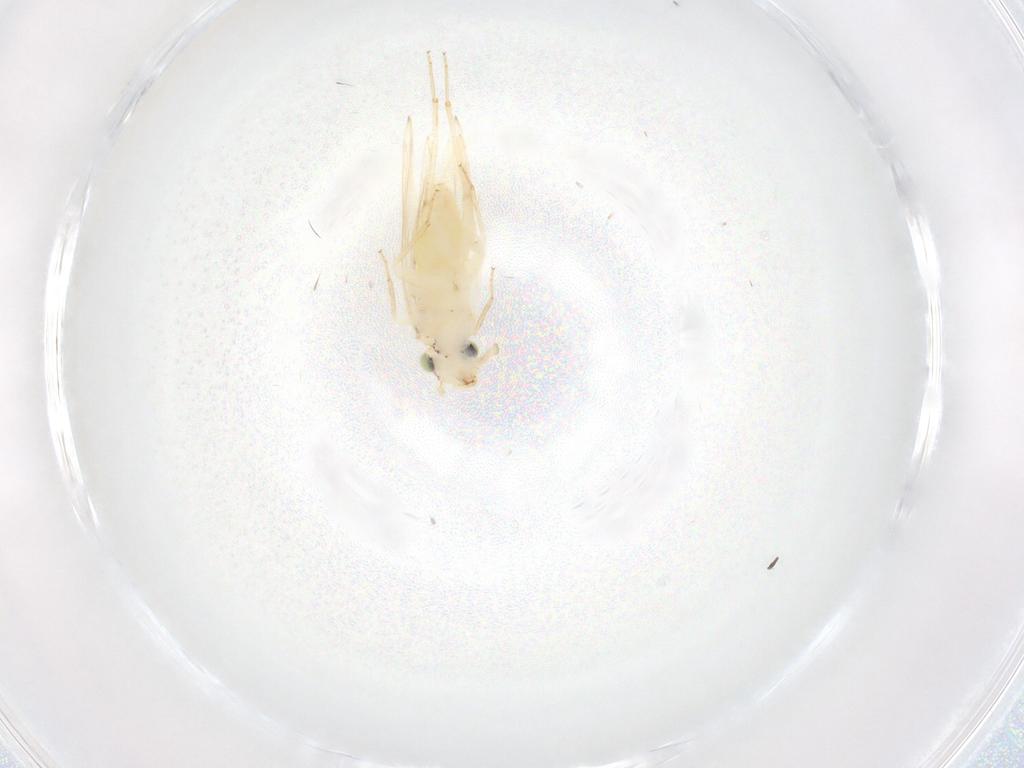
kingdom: Animalia
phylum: Arthropoda
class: Insecta
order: Psocodea
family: Lepidopsocidae
